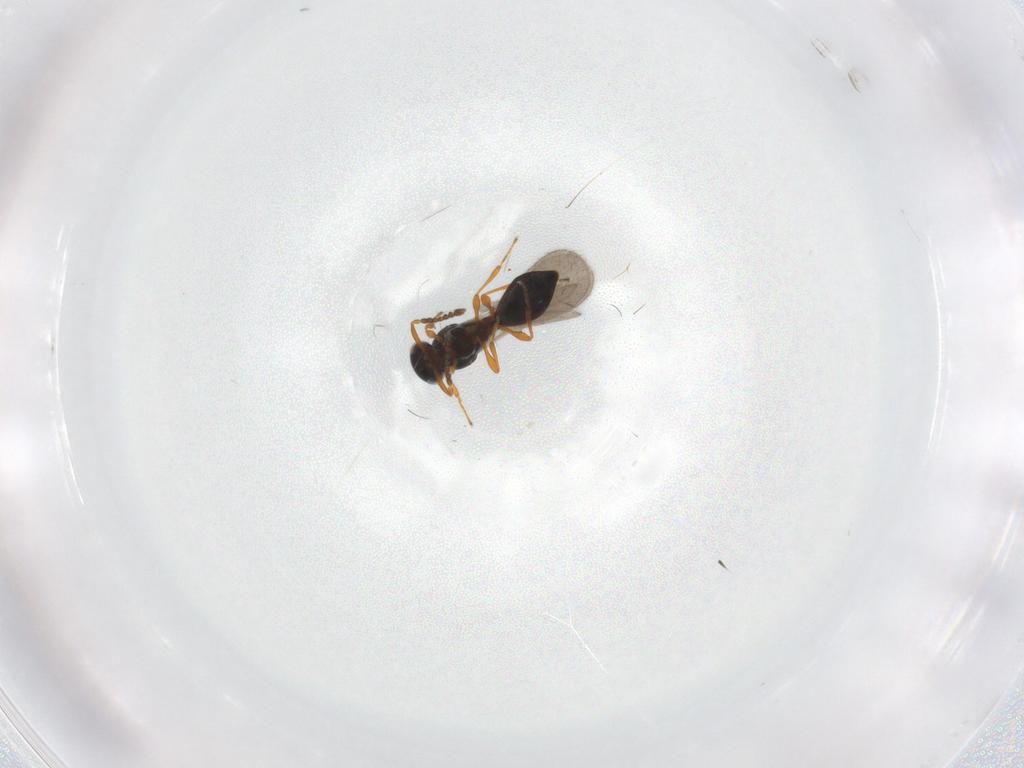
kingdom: Animalia
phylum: Arthropoda
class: Insecta
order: Hymenoptera
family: Platygastridae
